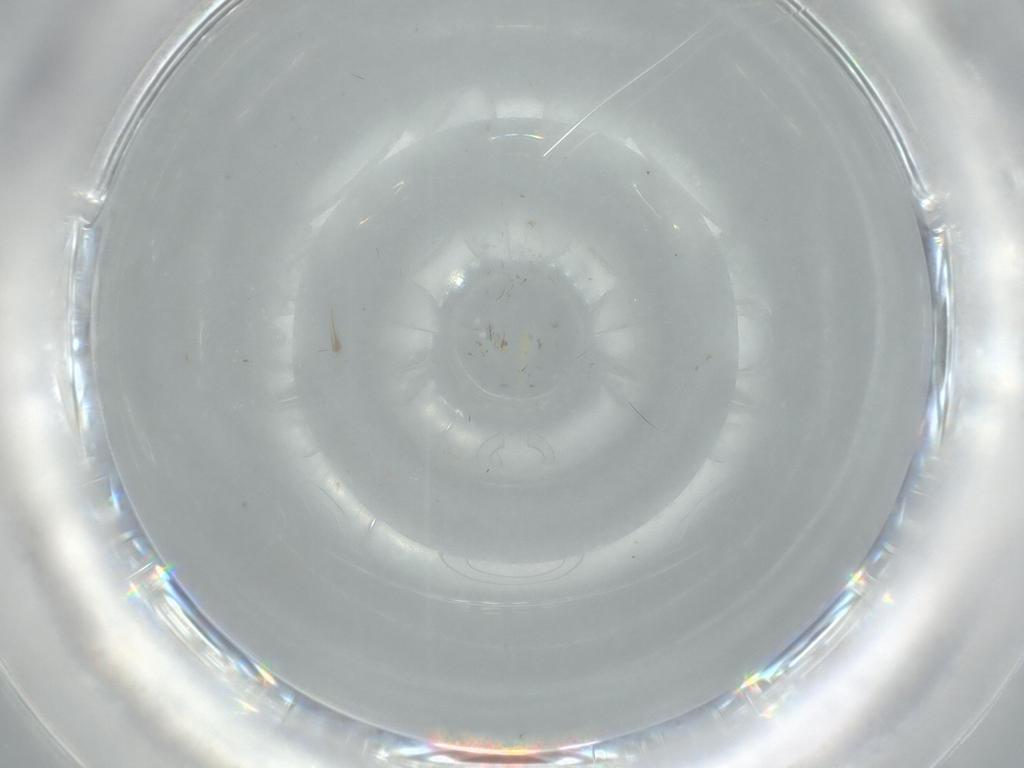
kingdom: Animalia
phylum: Arthropoda
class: Insecta
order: Diptera
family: Drosophilidae
